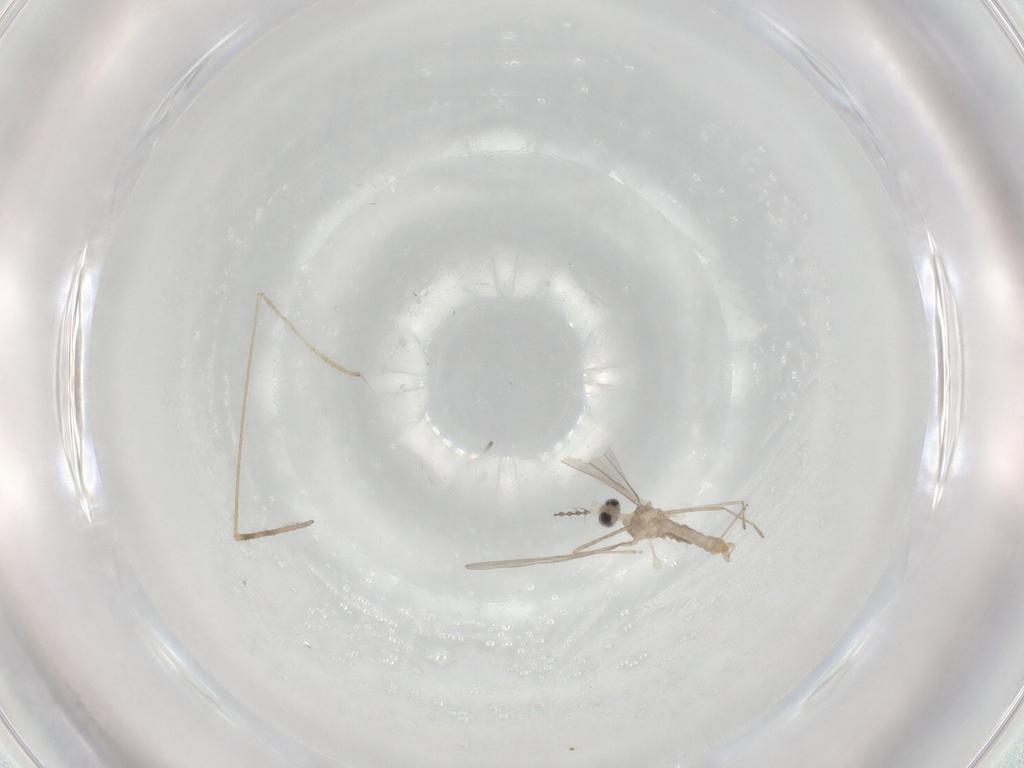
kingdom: Animalia
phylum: Arthropoda
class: Insecta
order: Diptera
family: Cecidomyiidae
